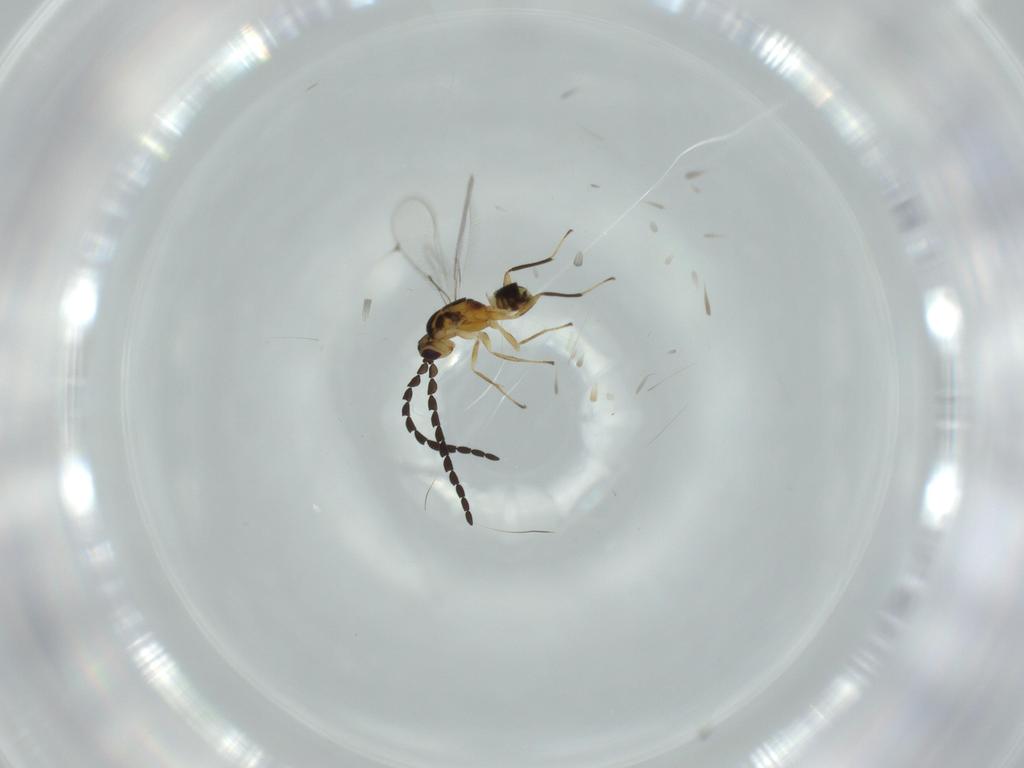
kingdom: Animalia
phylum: Arthropoda
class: Insecta
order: Hymenoptera
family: Mymaridae
